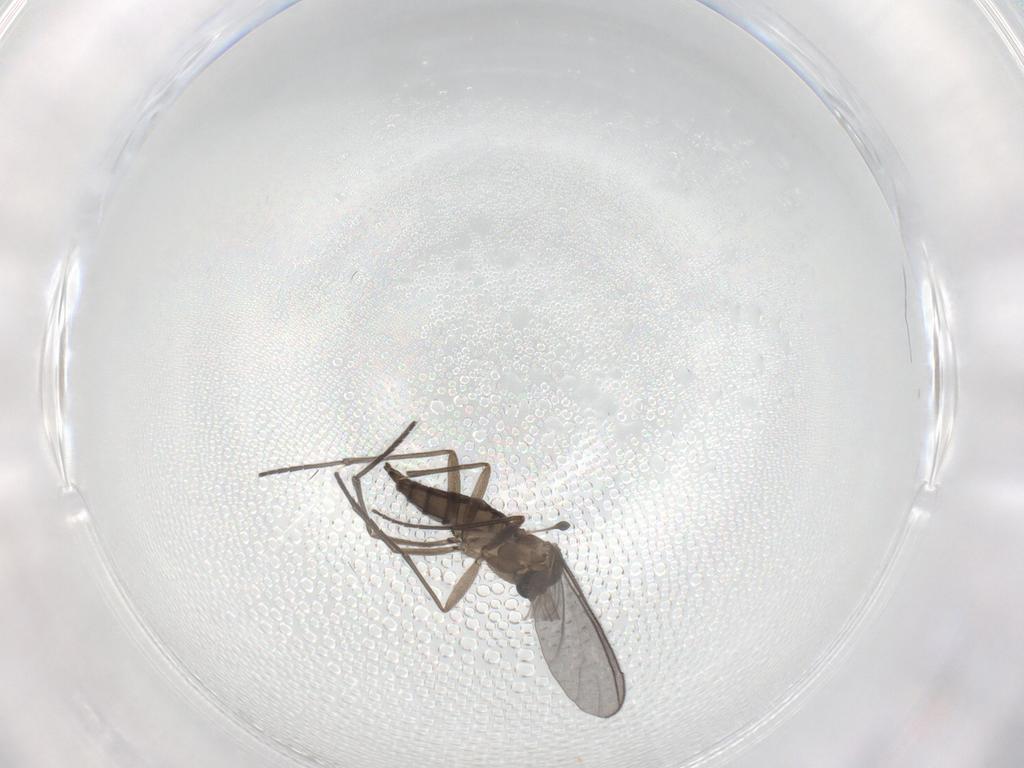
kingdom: Animalia
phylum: Arthropoda
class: Insecta
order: Diptera
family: Sciaridae
